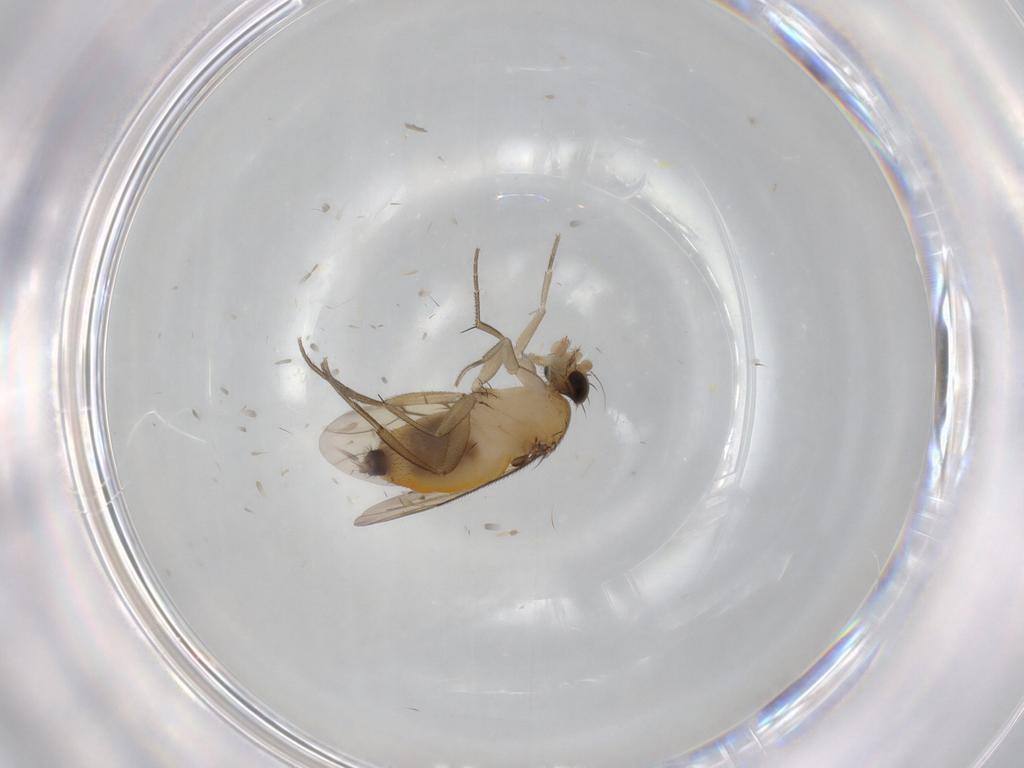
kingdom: Animalia
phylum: Arthropoda
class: Insecta
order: Diptera
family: Phoridae
